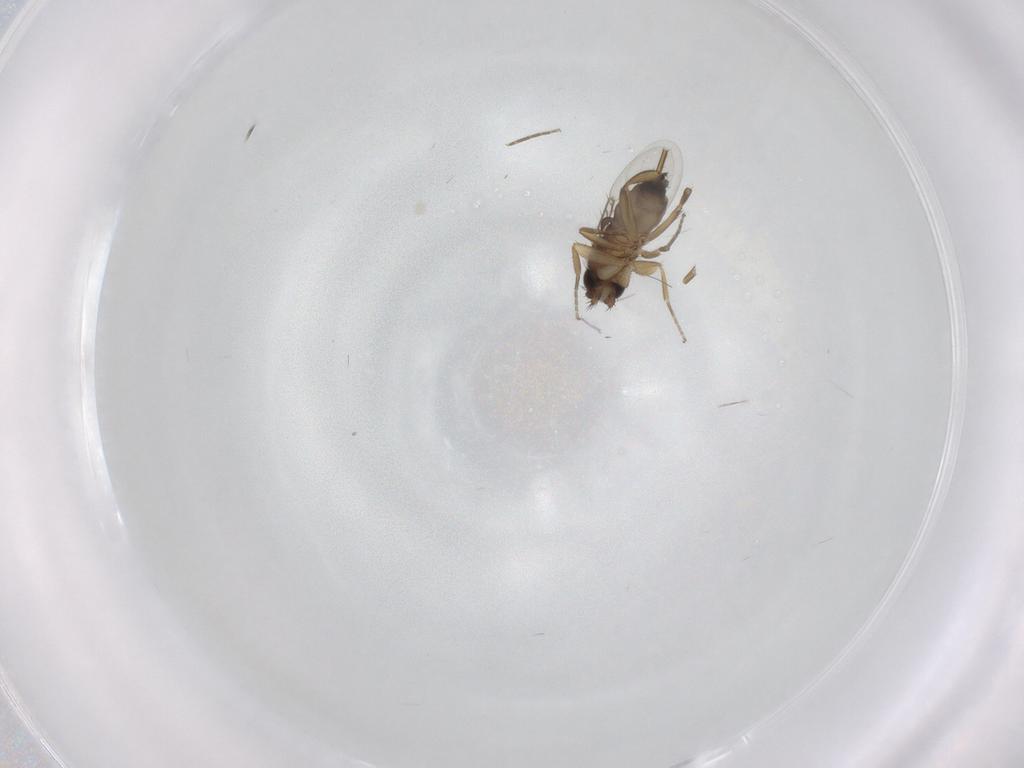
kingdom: Animalia
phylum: Arthropoda
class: Insecta
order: Diptera
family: Phoridae
